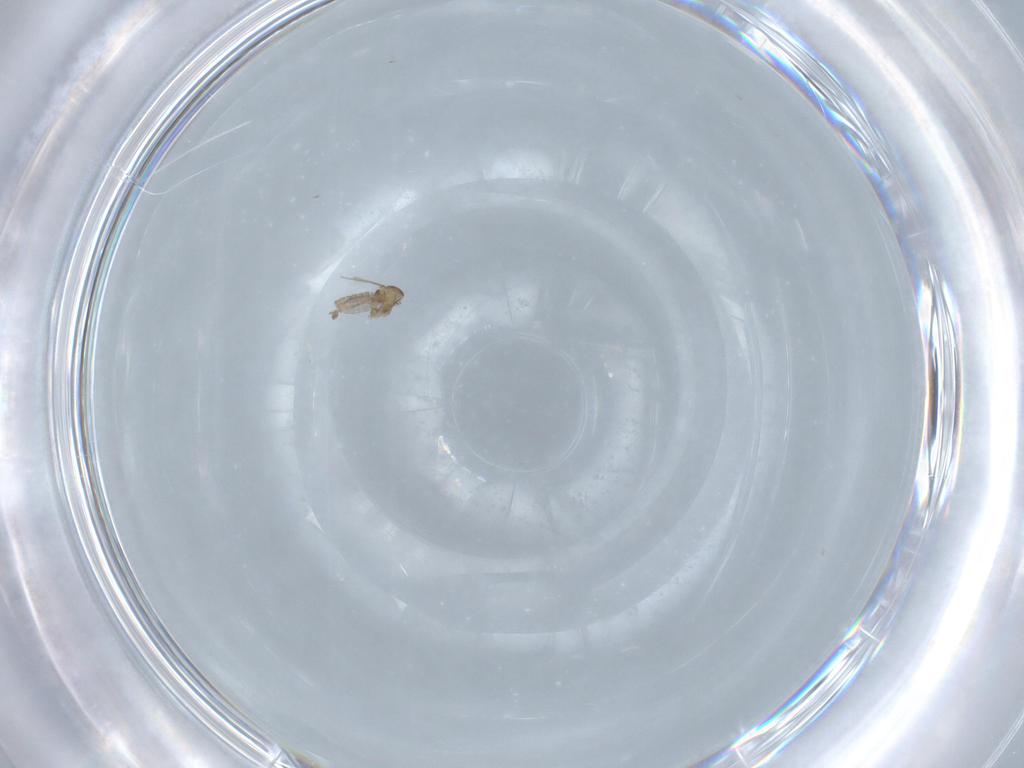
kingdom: Animalia
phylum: Arthropoda
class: Insecta
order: Diptera
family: Cecidomyiidae
